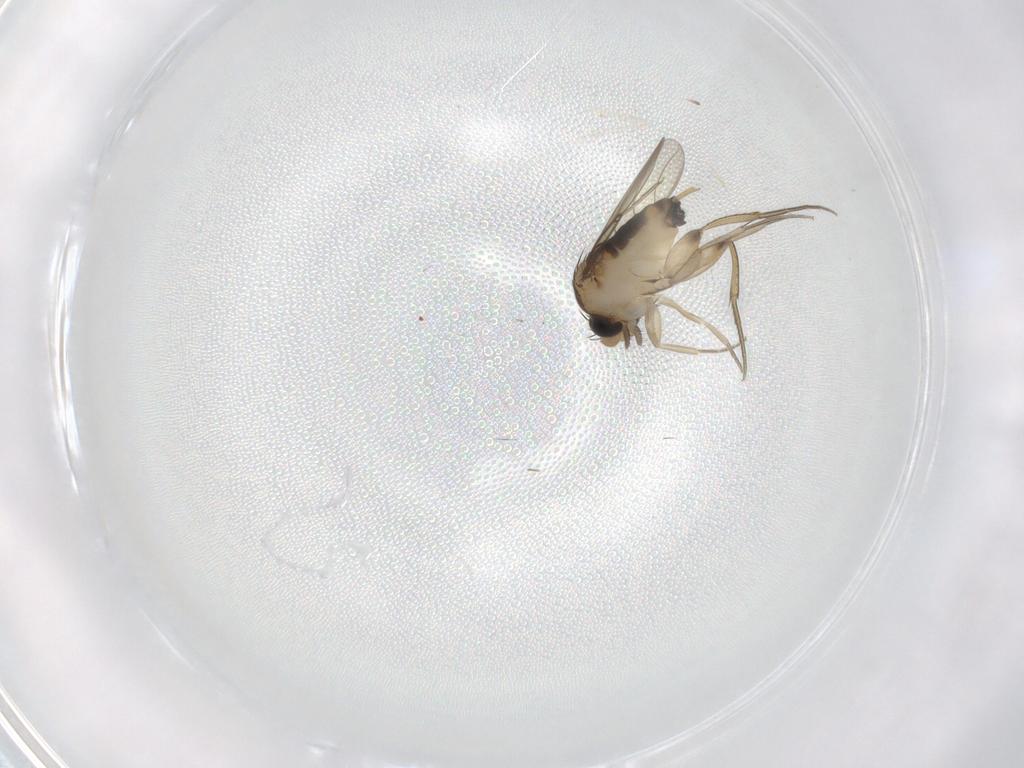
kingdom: Animalia
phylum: Arthropoda
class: Insecta
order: Diptera
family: Phoridae
